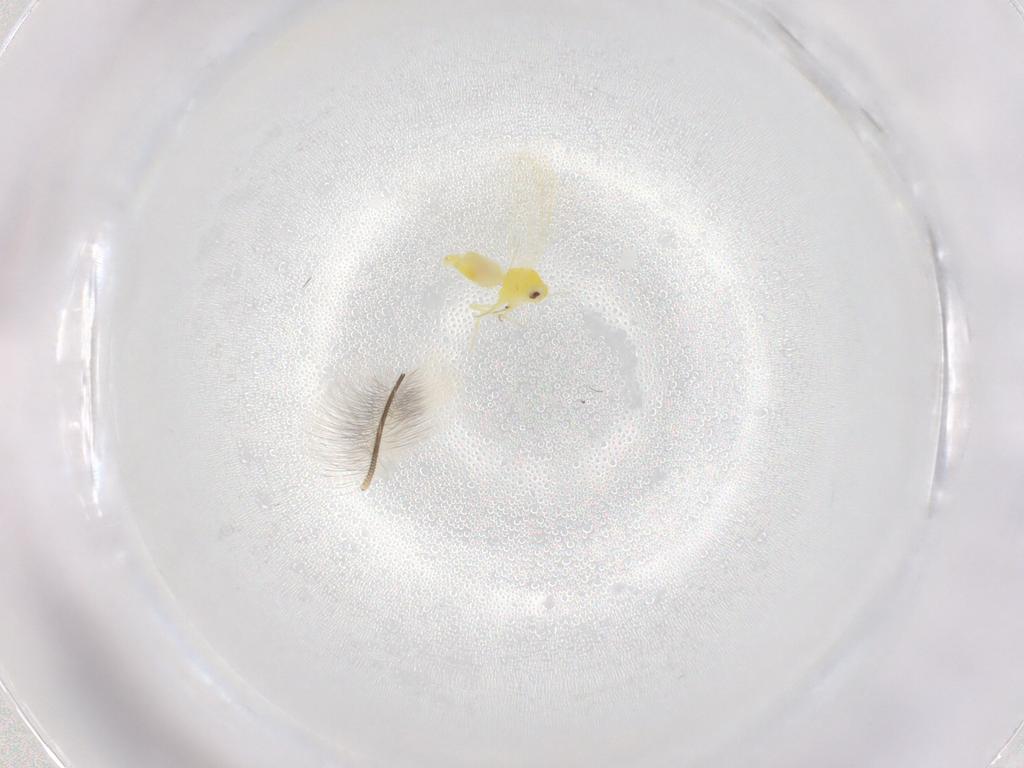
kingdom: Animalia
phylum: Arthropoda
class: Insecta
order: Hemiptera
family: Aleyrodidae
